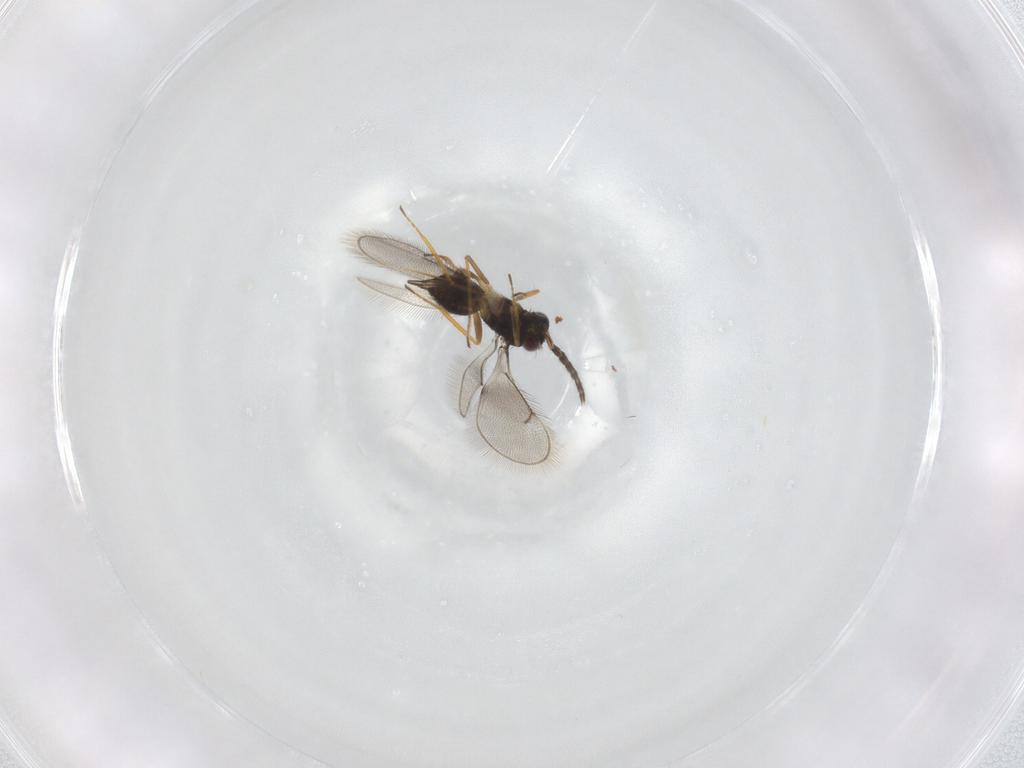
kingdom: Animalia
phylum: Arthropoda
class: Insecta
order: Hymenoptera
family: Eulophidae
